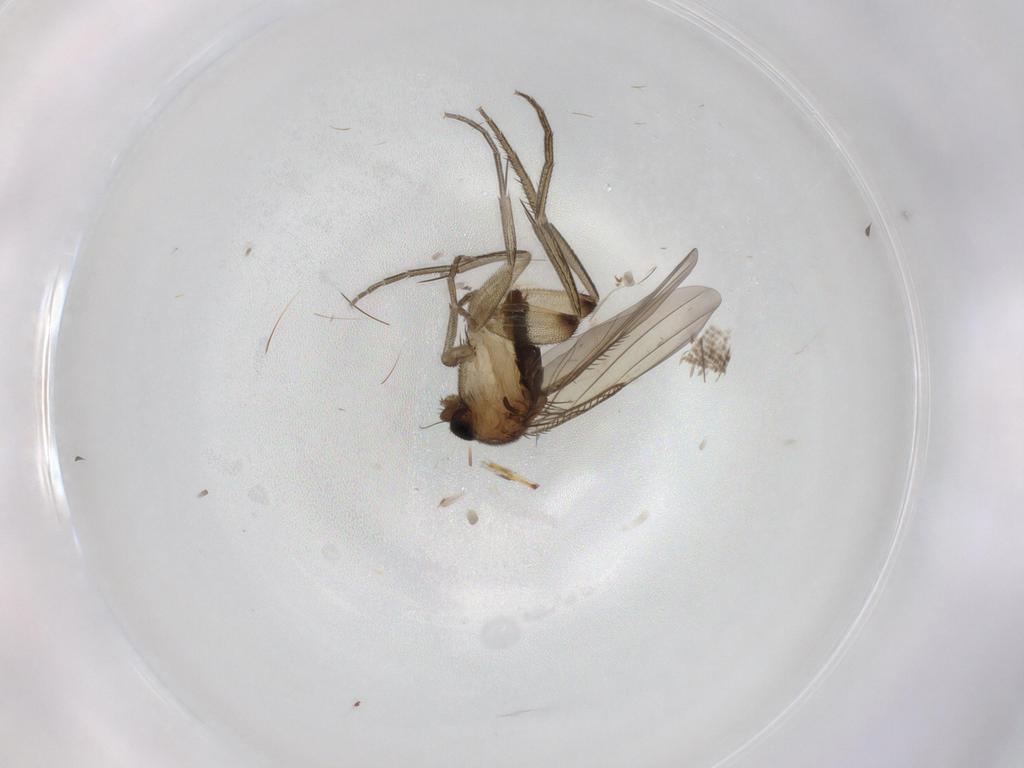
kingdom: Animalia
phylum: Arthropoda
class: Insecta
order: Diptera
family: Phoridae
